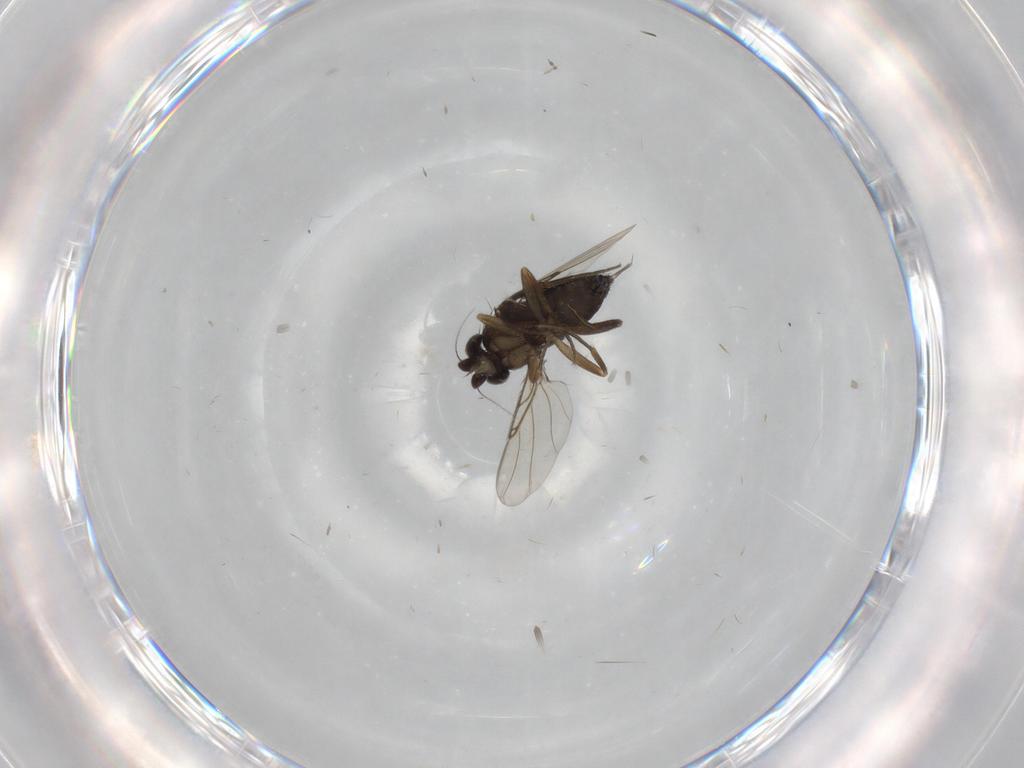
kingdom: Animalia
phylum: Arthropoda
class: Insecta
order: Diptera
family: Phoridae
